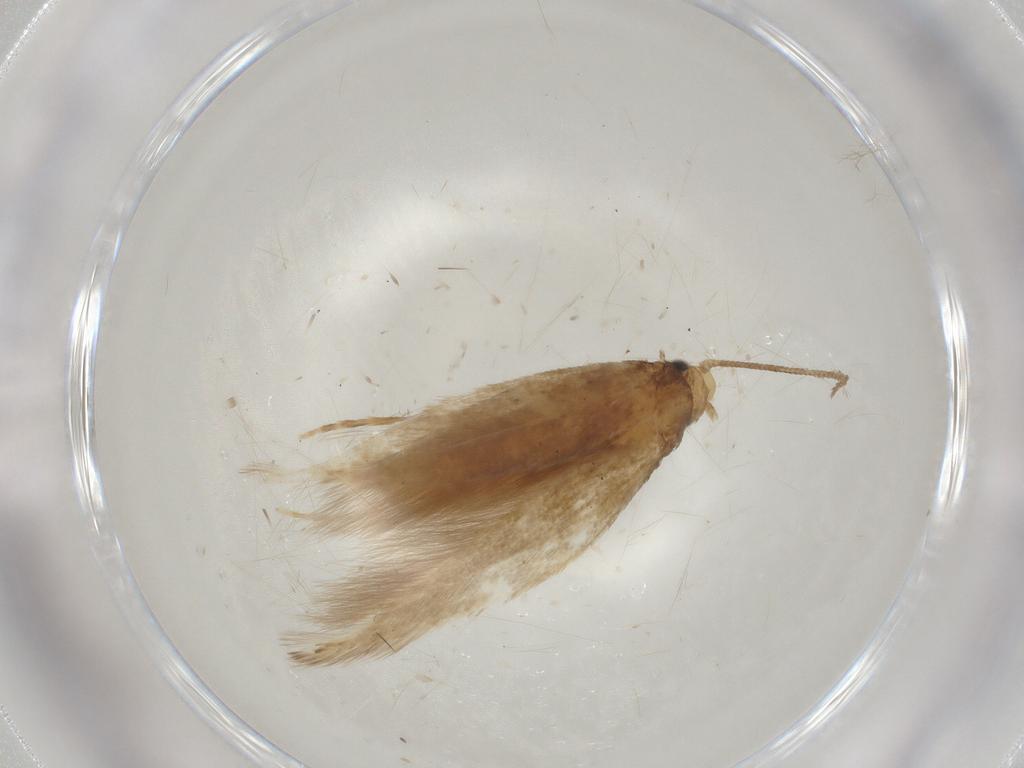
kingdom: Animalia
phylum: Arthropoda
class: Insecta
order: Lepidoptera
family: Tineidae
